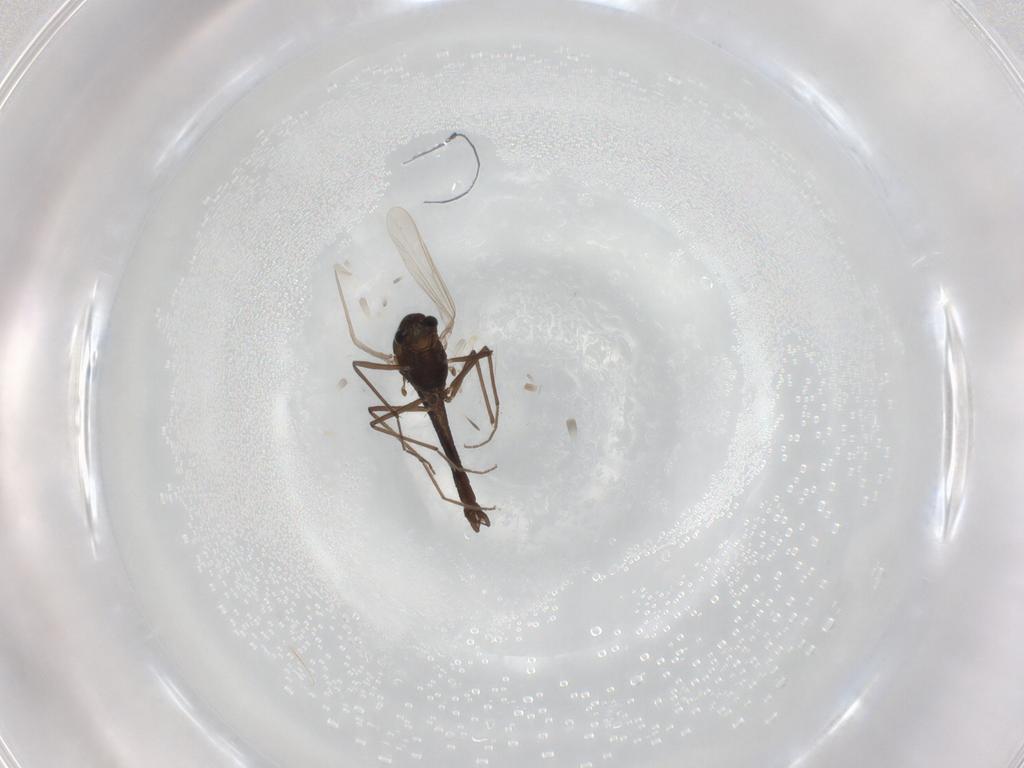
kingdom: Animalia
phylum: Arthropoda
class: Insecta
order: Diptera
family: Chironomidae
